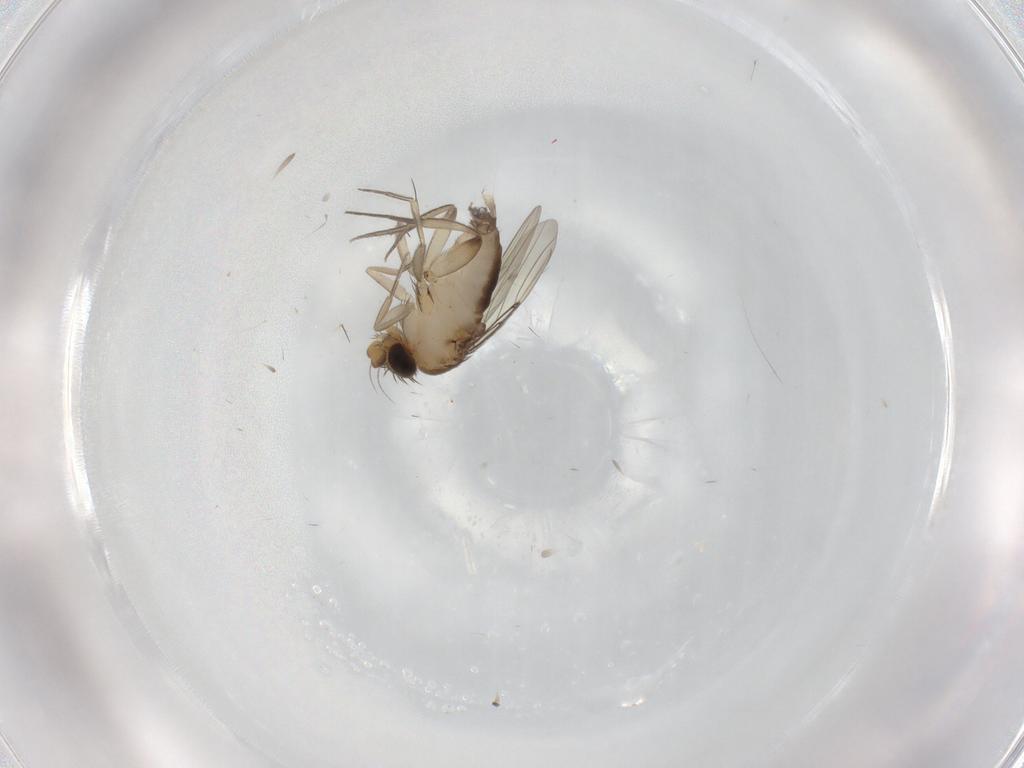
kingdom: Animalia
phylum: Arthropoda
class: Insecta
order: Diptera
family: Phoridae
